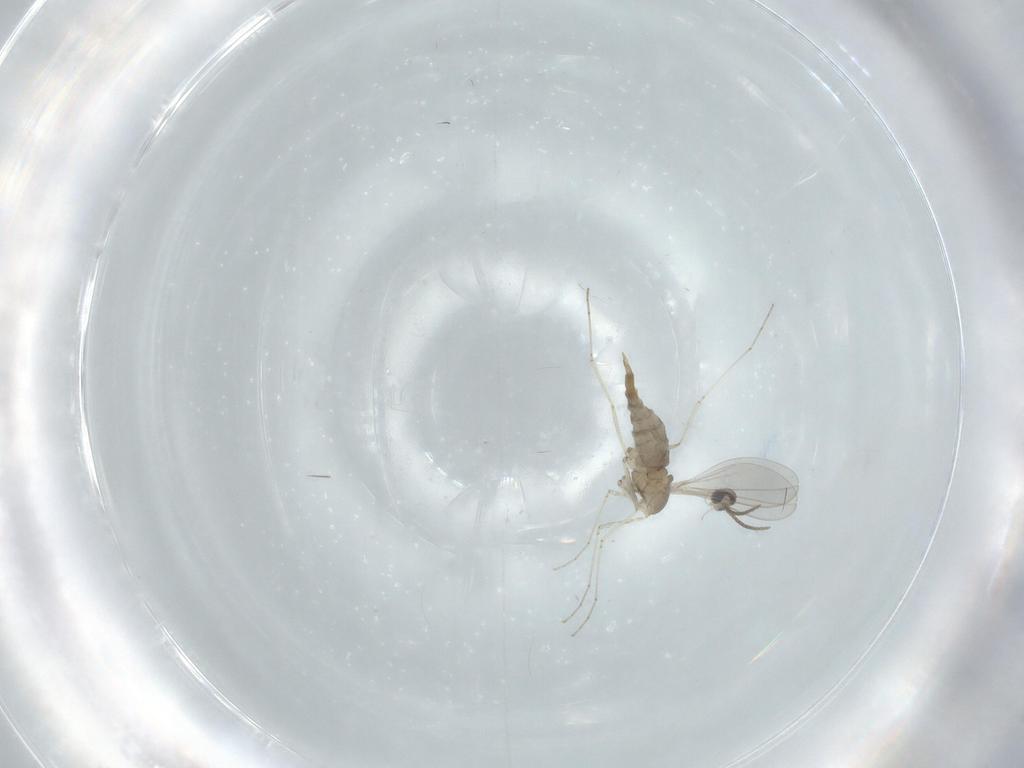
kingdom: Animalia
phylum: Arthropoda
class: Insecta
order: Diptera
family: Cecidomyiidae
